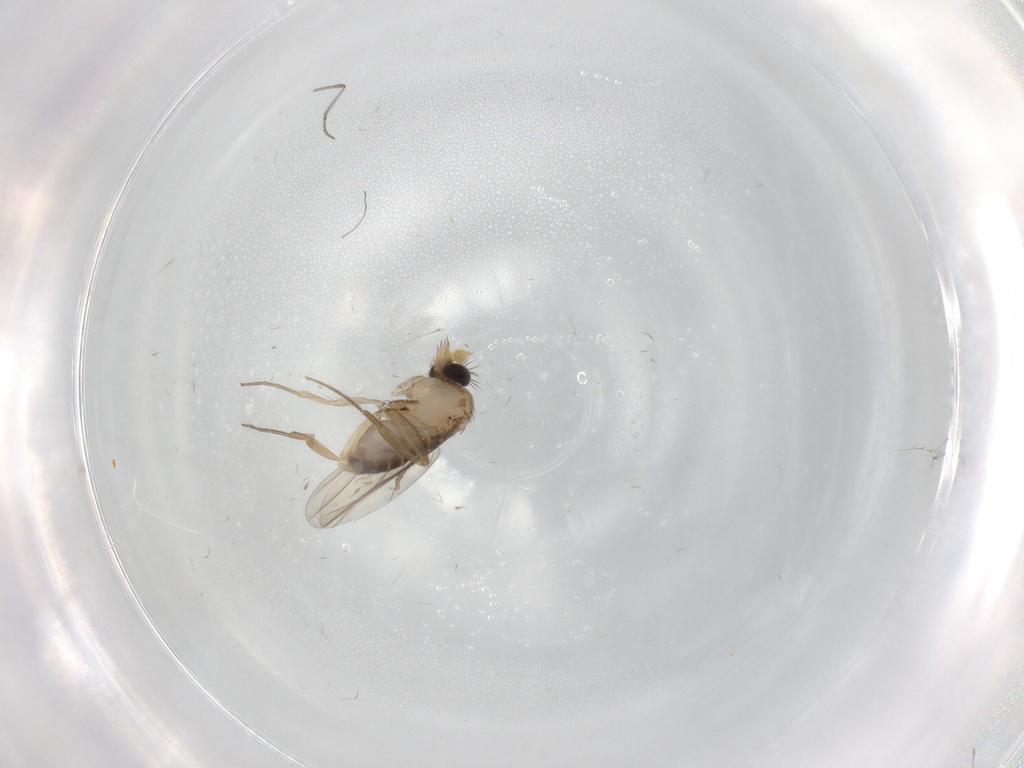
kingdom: Animalia
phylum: Arthropoda
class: Insecta
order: Diptera
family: Phoridae
